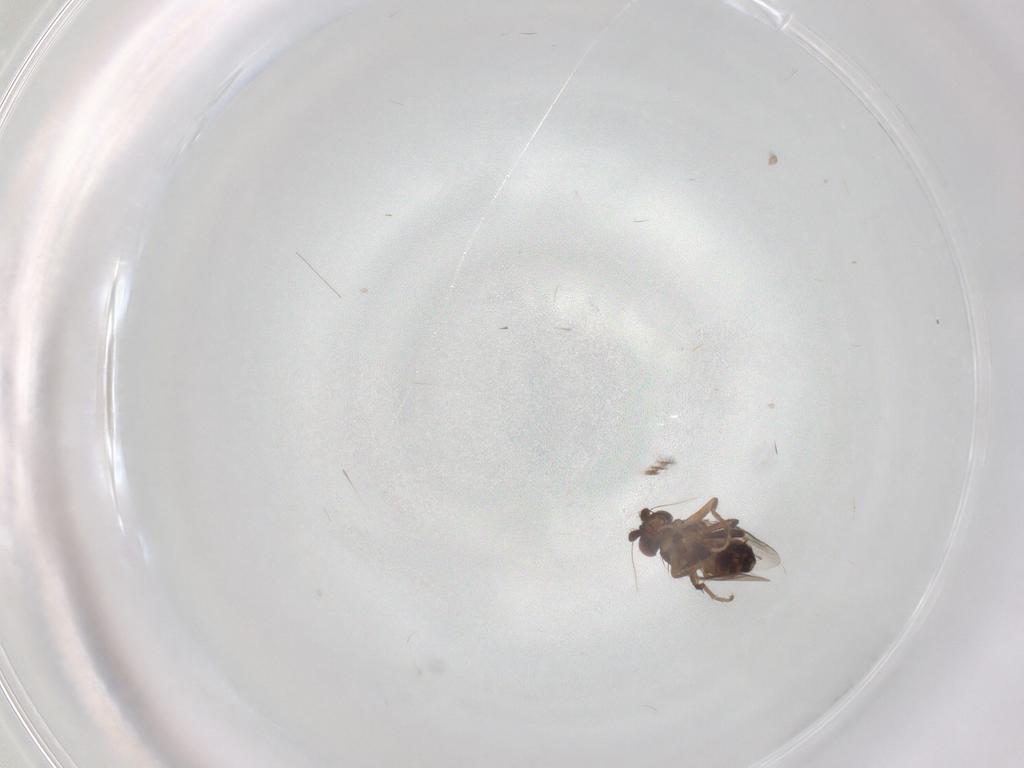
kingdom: Animalia
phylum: Arthropoda
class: Insecta
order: Diptera
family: Sphaeroceridae
